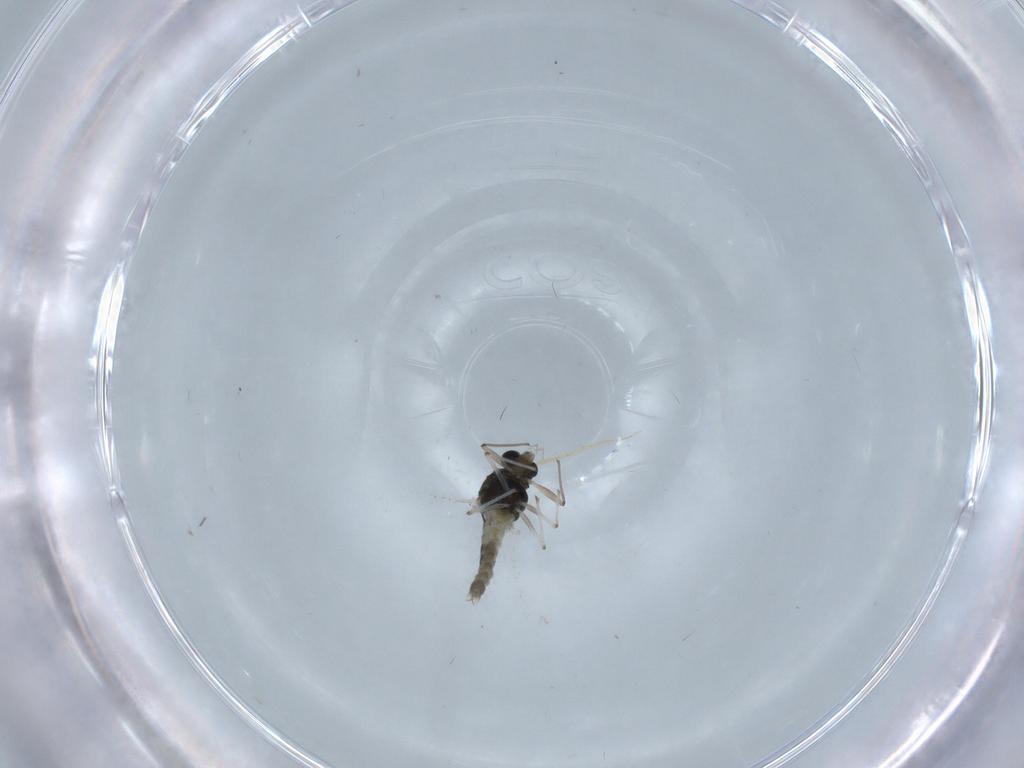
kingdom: Animalia
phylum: Arthropoda
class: Insecta
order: Diptera
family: Chironomidae
